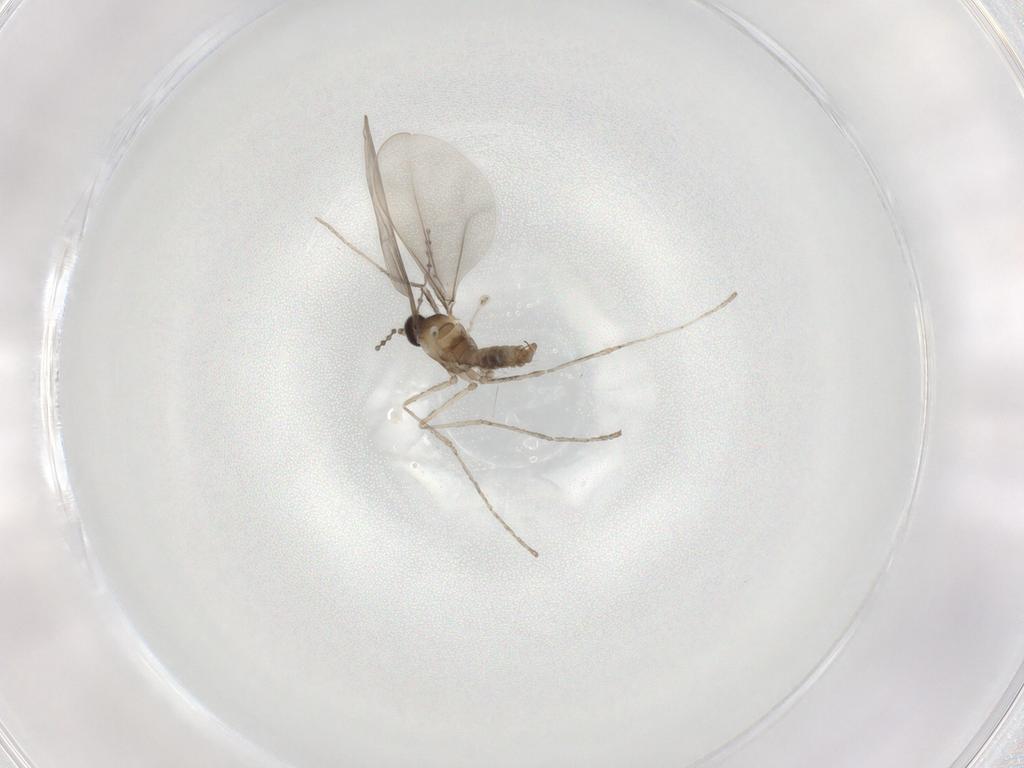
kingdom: Animalia
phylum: Arthropoda
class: Insecta
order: Diptera
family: Cecidomyiidae
